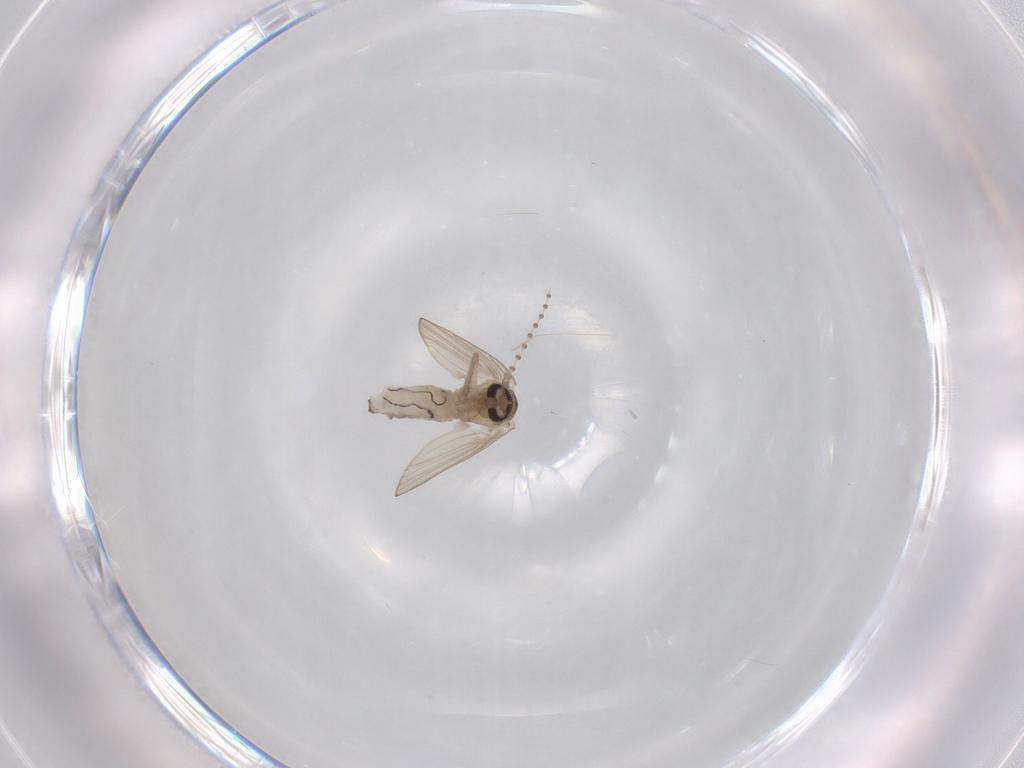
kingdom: Animalia
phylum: Arthropoda
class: Insecta
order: Diptera
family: Psychodidae
